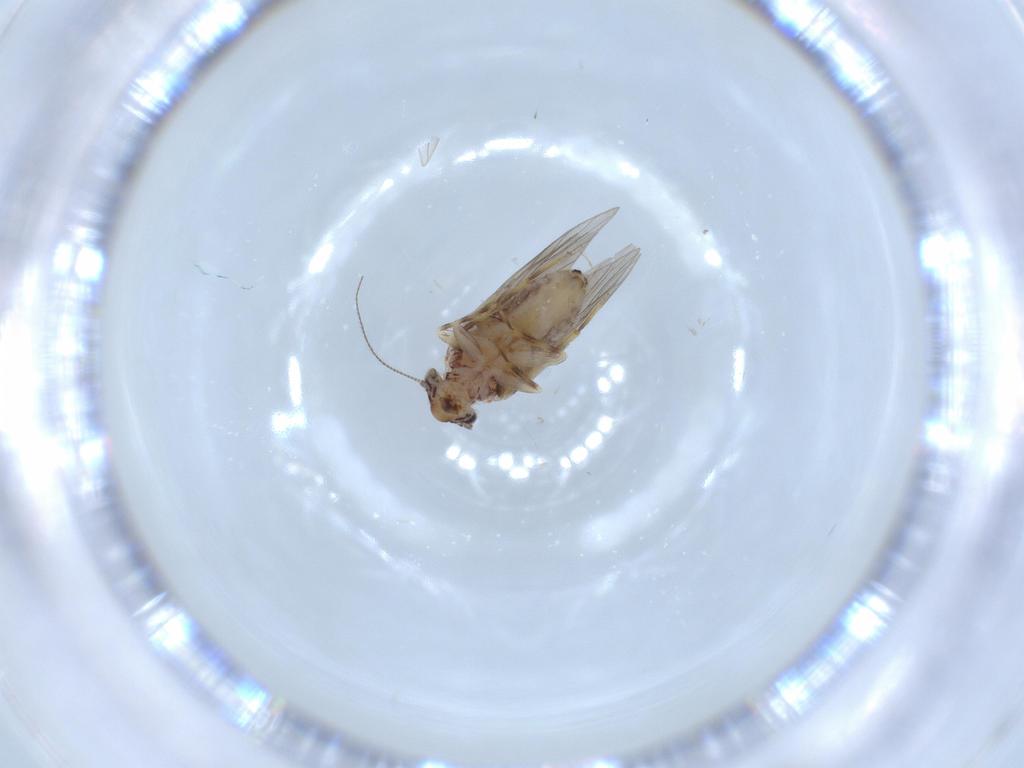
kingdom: Animalia
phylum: Arthropoda
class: Insecta
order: Psocodea
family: Lepidopsocidae
